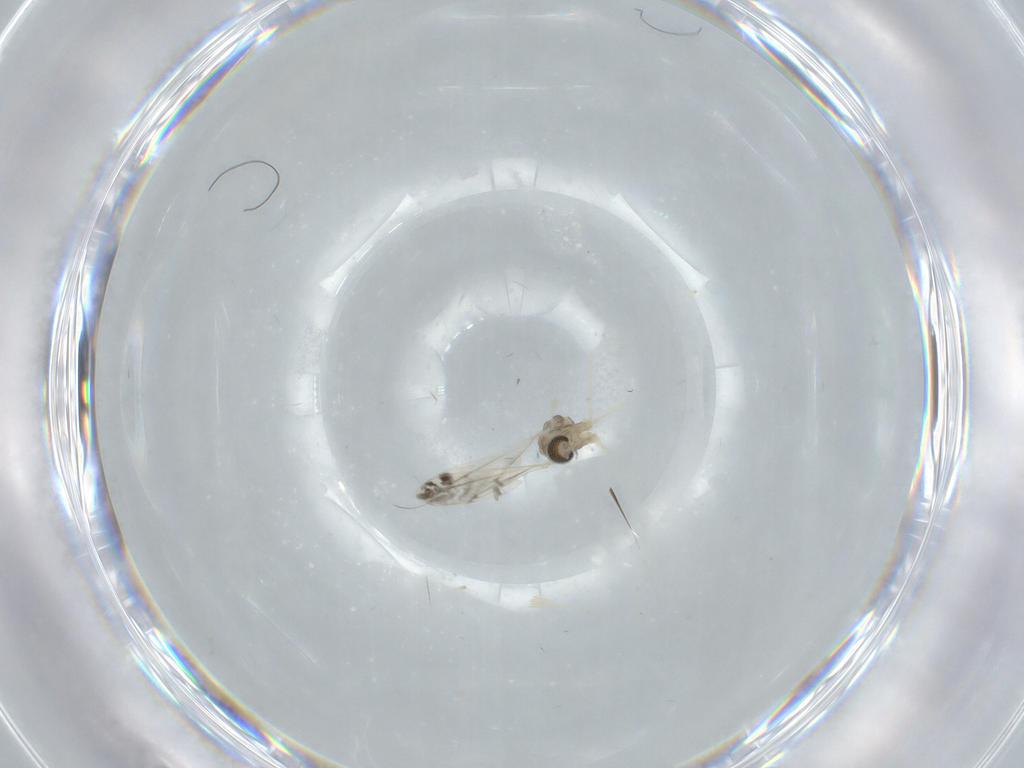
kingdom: Animalia
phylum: Arthropoda
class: Insecta
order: Diptera
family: Cecidomyiidae
